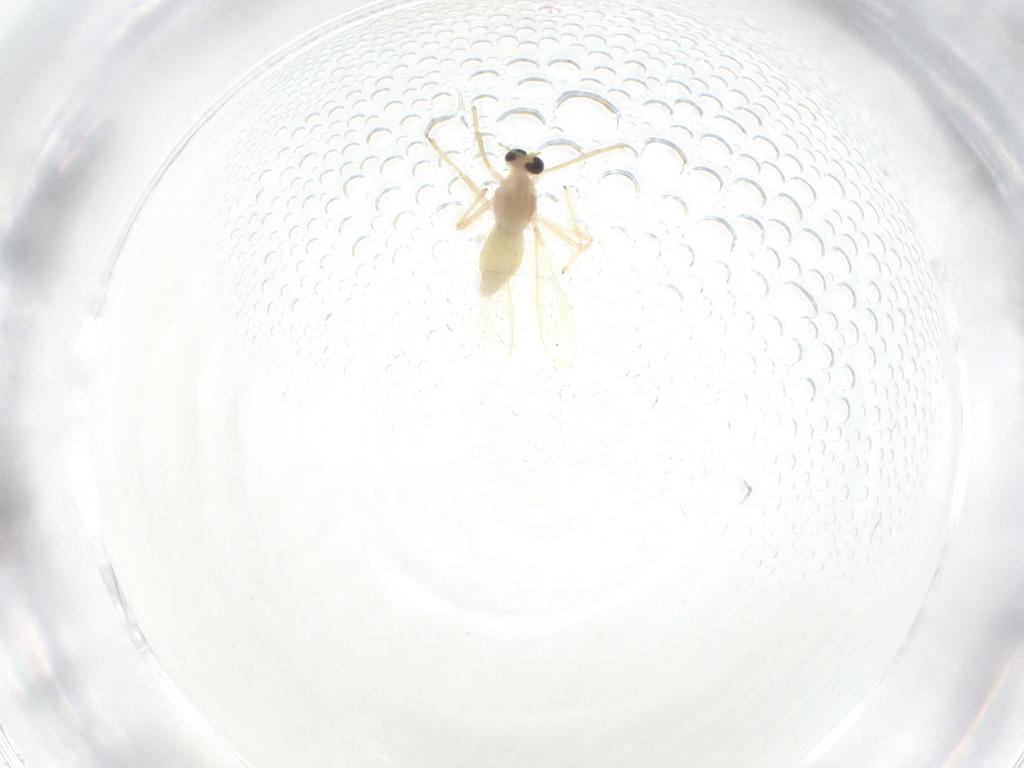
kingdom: Animalia
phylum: Arthropoda
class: Insecta
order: Diptera
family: Chironomidae
